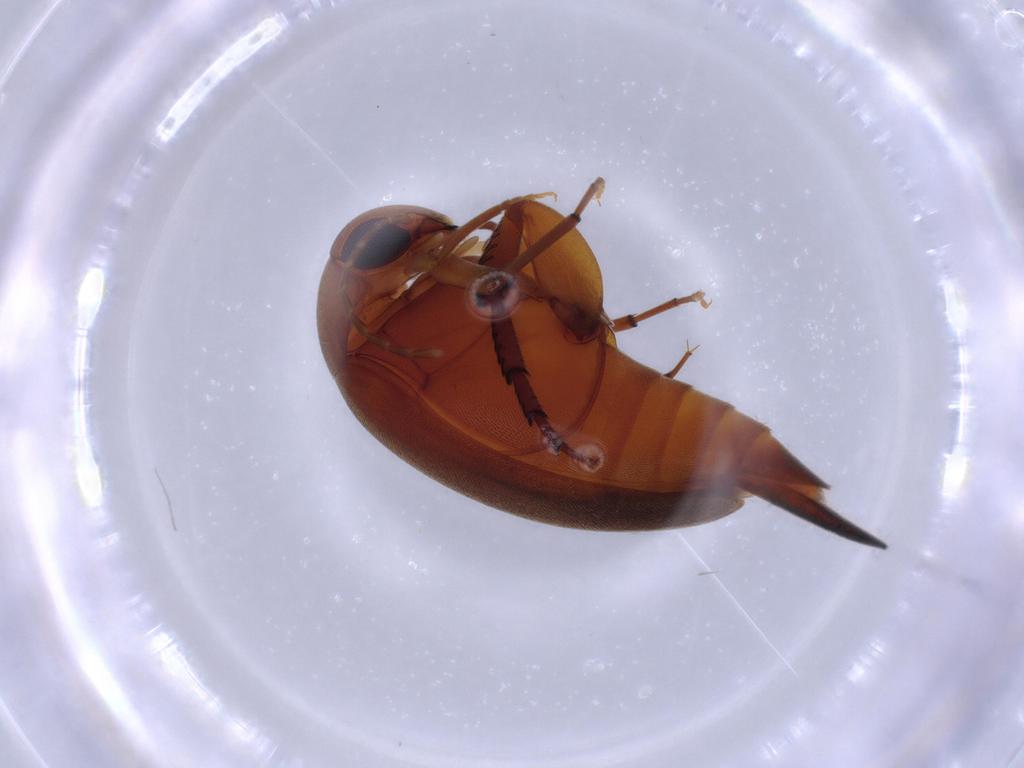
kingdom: Animalia
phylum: Arthropoda
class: Insecta
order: Coleoptera
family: Mordellidae
